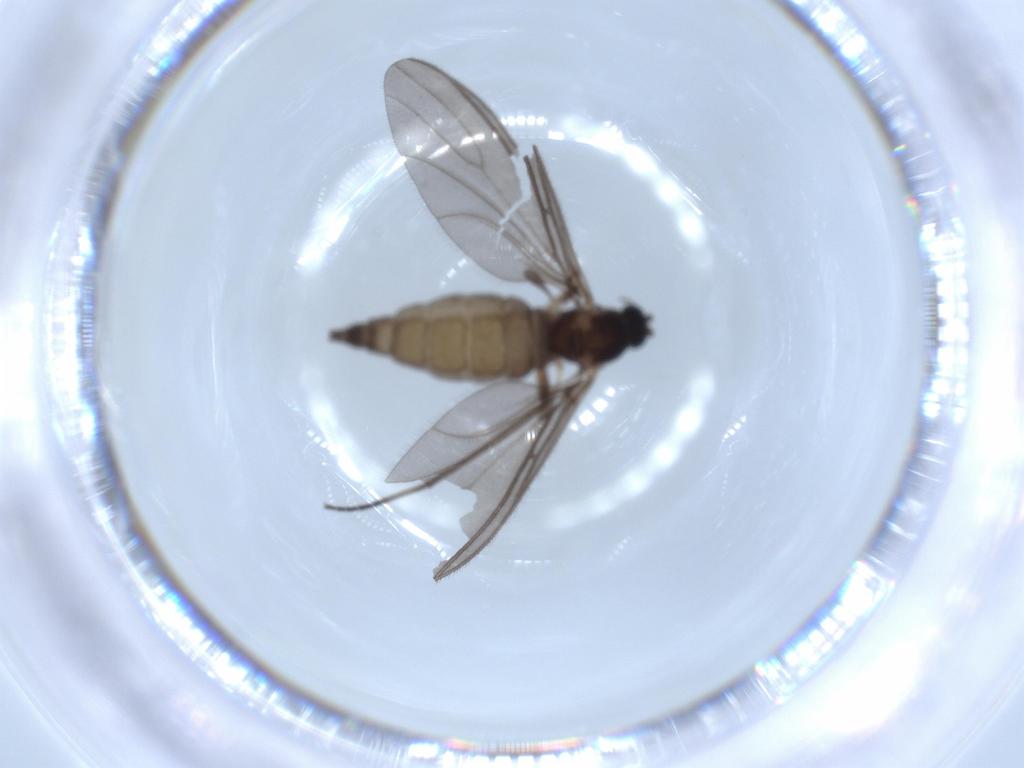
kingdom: Animalia
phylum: Arthropoda
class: Insecta
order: Diptera
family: Sciaridae
